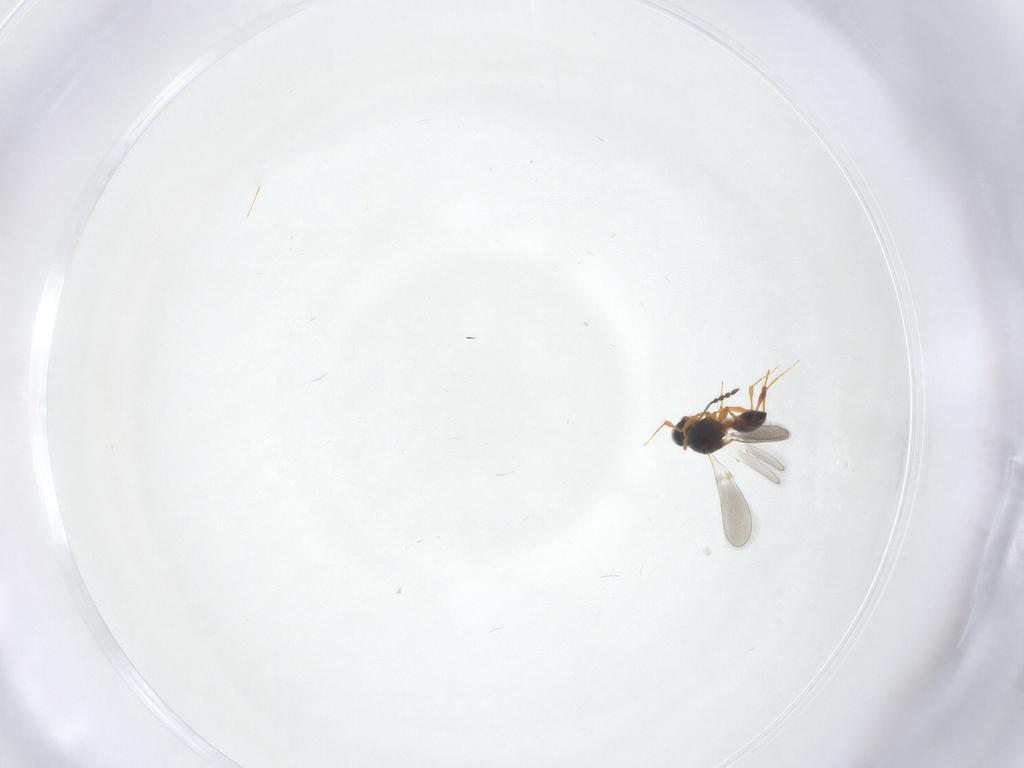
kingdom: Animalia
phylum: Arthropoda
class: Insecta
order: Hymenoptera
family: Platygastridae
